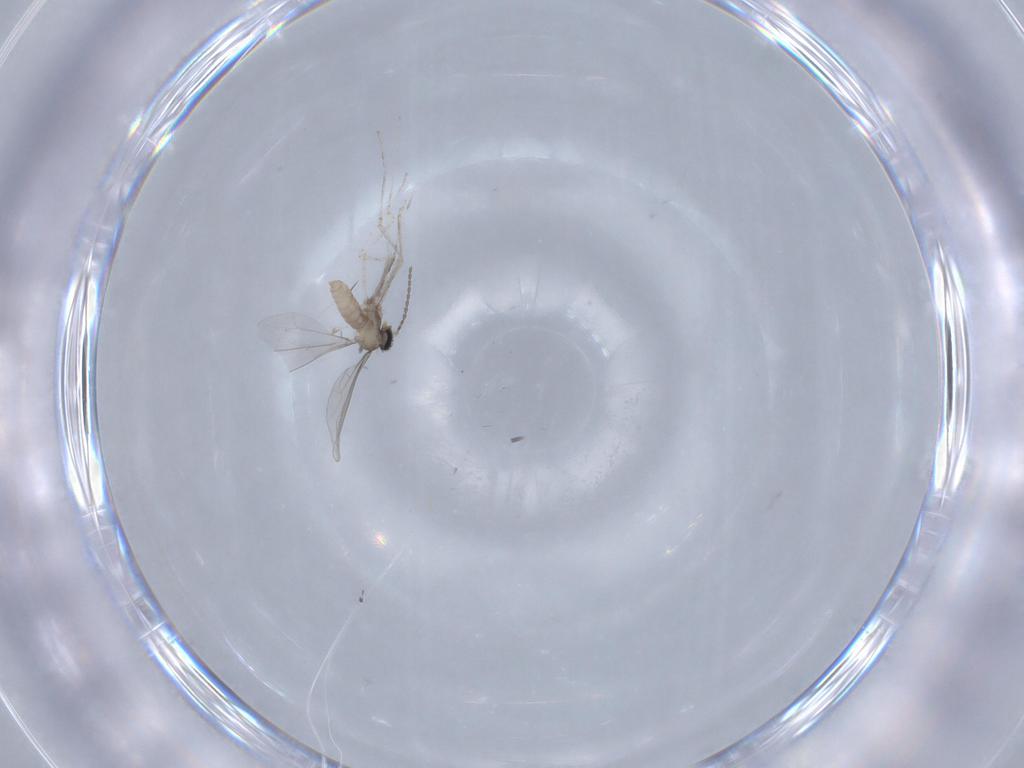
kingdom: Animalia
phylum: Arthropoda
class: Insecta
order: Diptera
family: Cecidomyiidae
